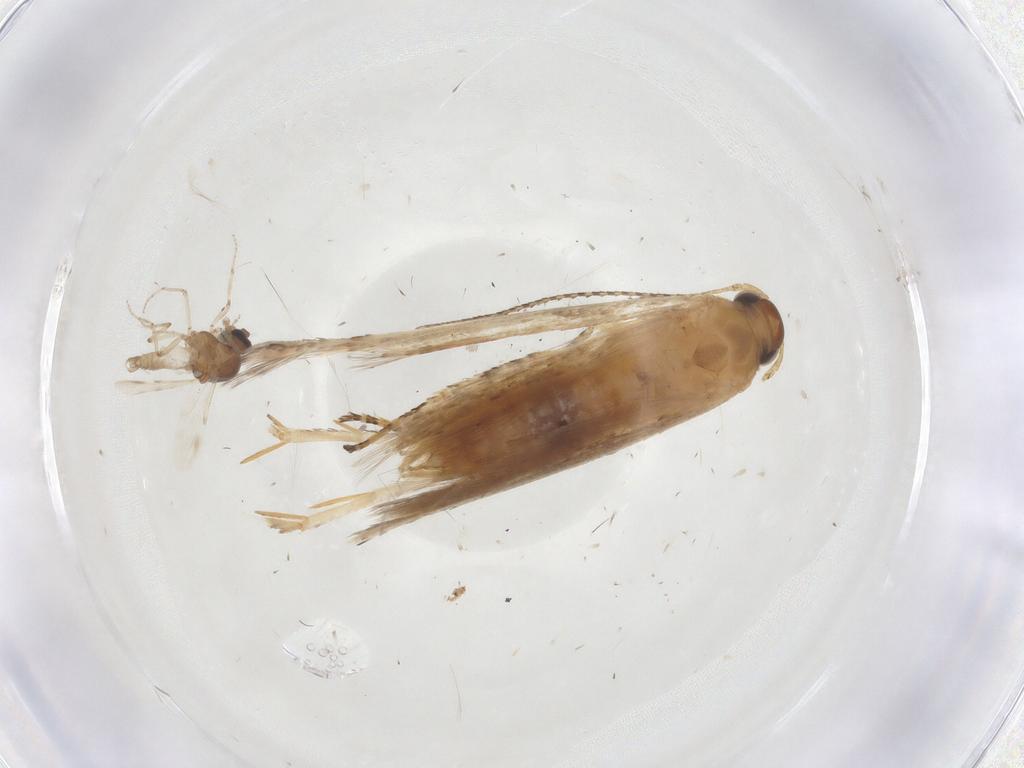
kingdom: Animalia
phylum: Arthropoda
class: Insecta
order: Lepidoptera
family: Gelechiidae
